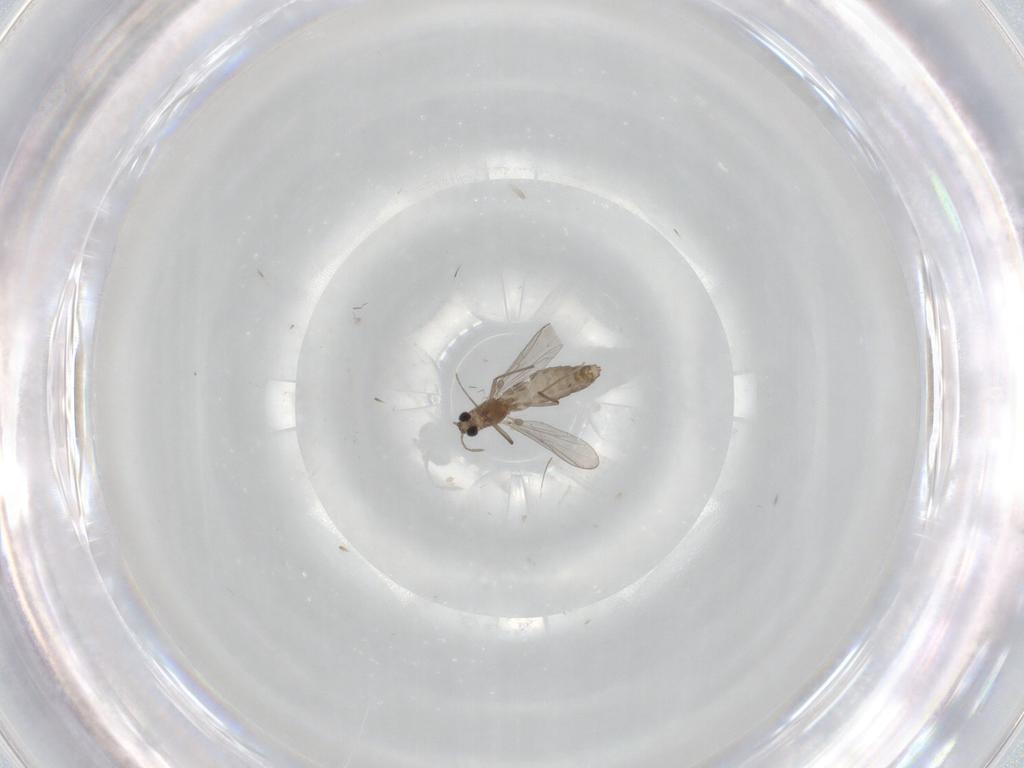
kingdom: Animalia
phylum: Arthropoda
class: Insecta
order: Diptera
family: Chironomidae
